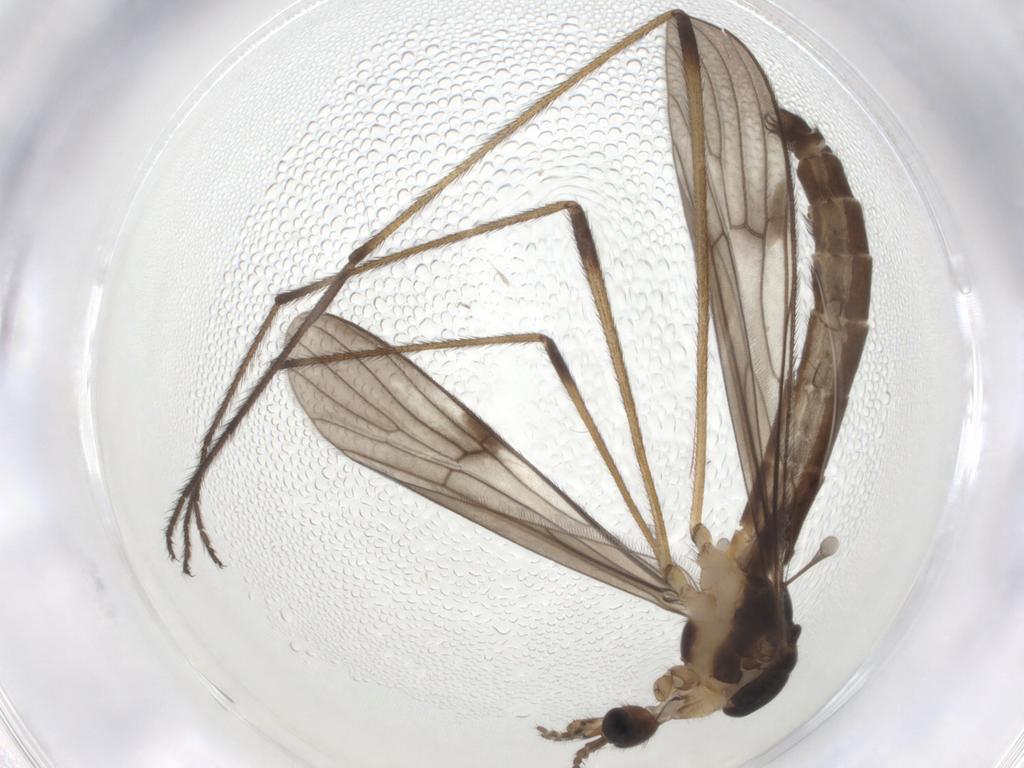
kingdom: Animalia
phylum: Arthropoda
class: Insecta
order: Diptera
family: Limoniidae
